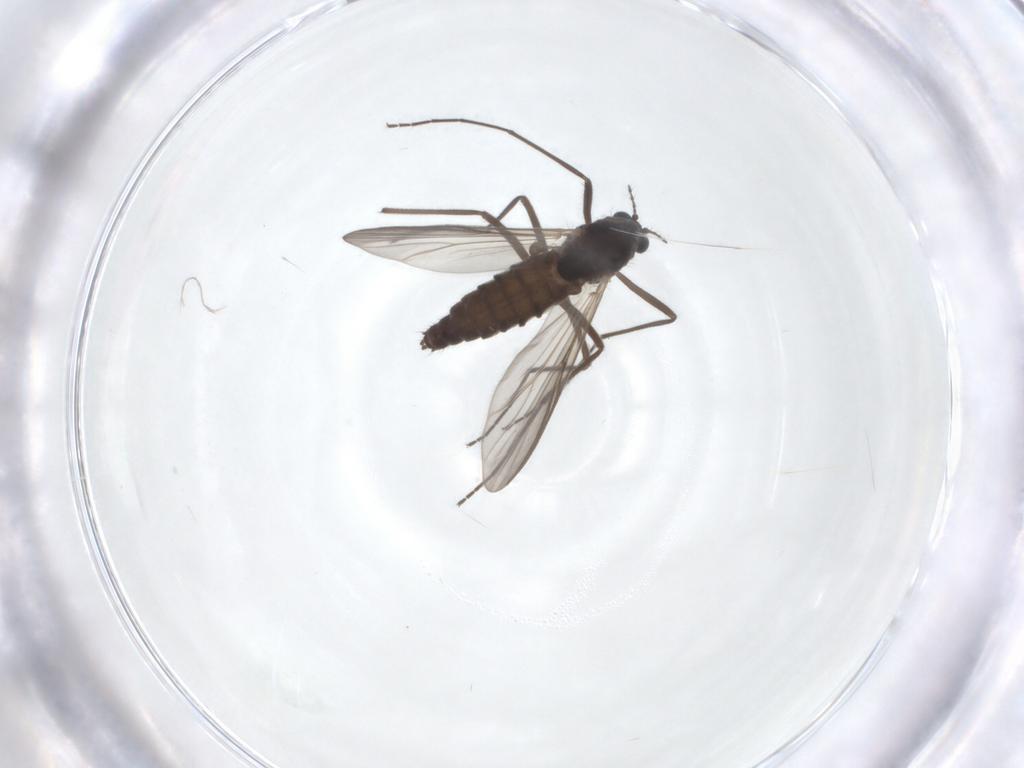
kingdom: Animalia
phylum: Arthropoda
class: Insecta
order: Diptera
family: Chironomidae
